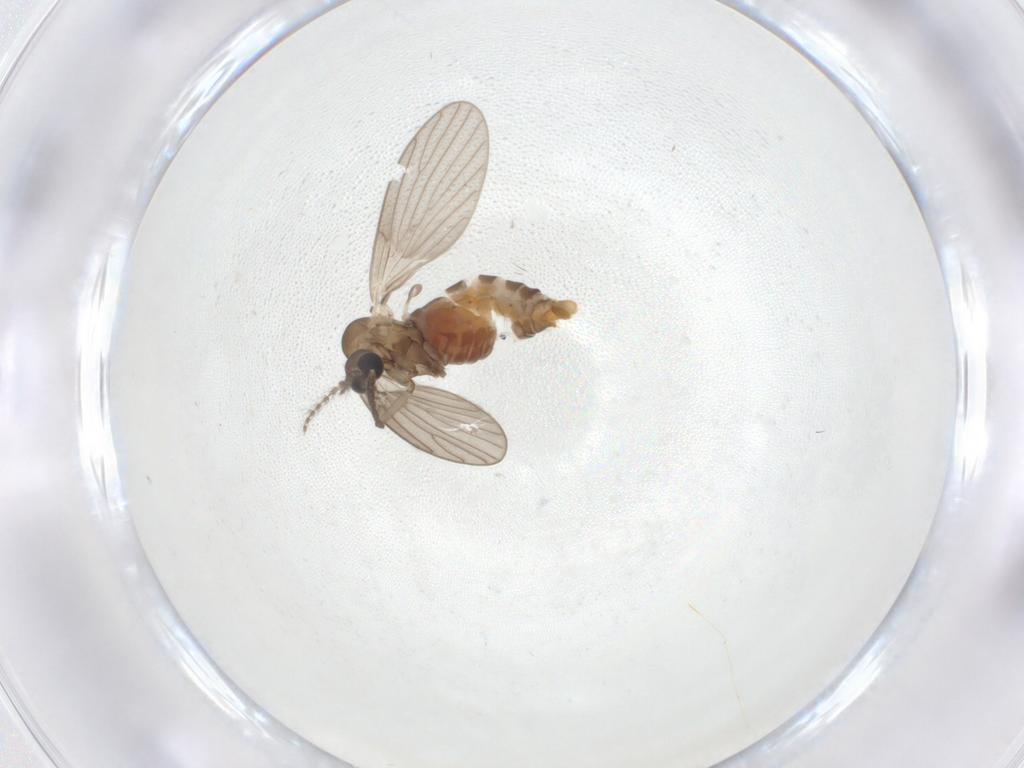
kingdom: Animalia
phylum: Arthropoda
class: Insecta
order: Diptera
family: Psychodidae
